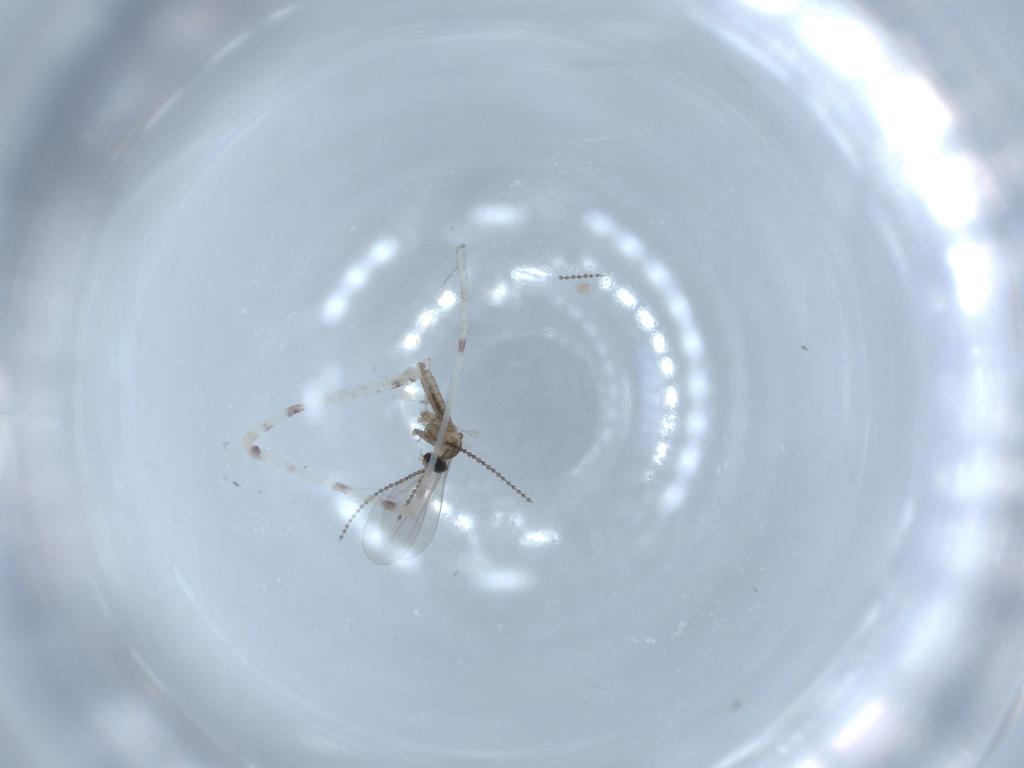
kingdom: Animalia
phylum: Arthropoda
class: Insecta
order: Diptera
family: Cecidomyiidae
